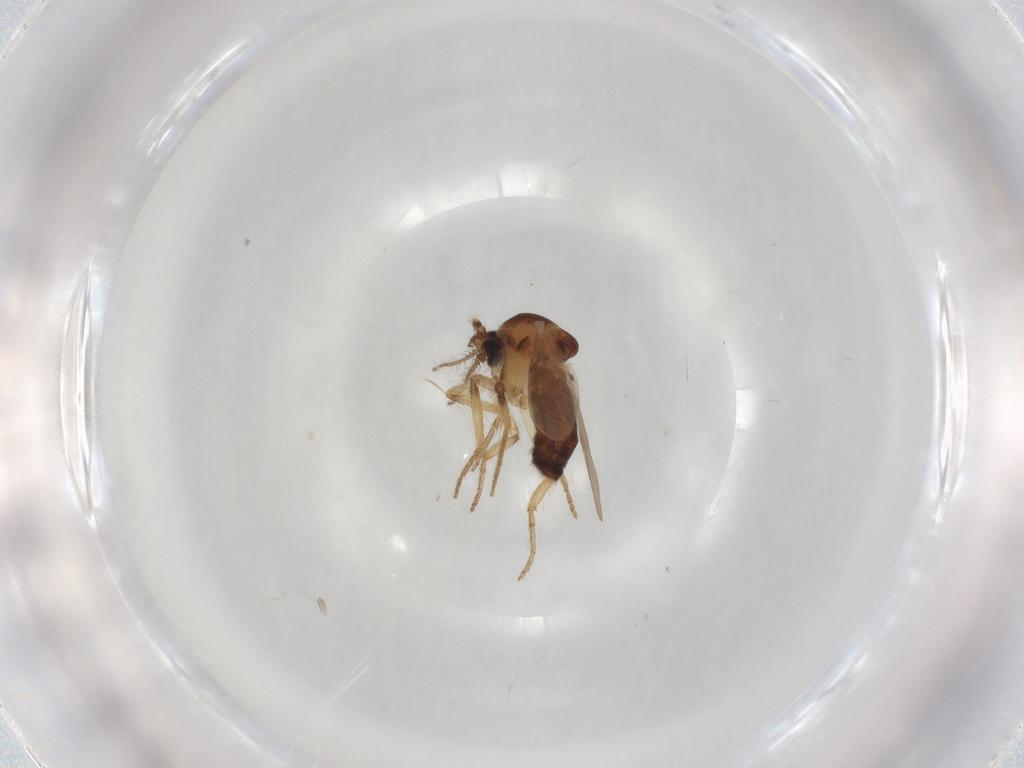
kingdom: Animalia
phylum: Arthropoda
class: Insecta
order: Diptera
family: Ceratopogonidae
